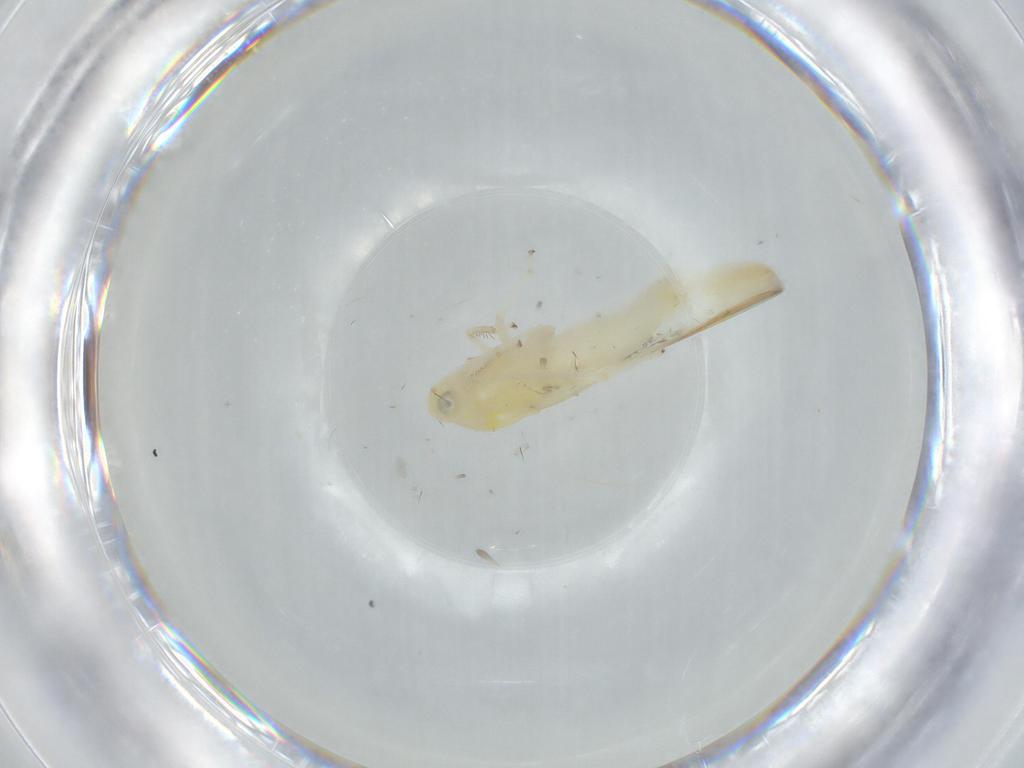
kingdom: Animalia
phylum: Arthropoda
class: Insecta
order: Hemiptera
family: Cicadellidae
